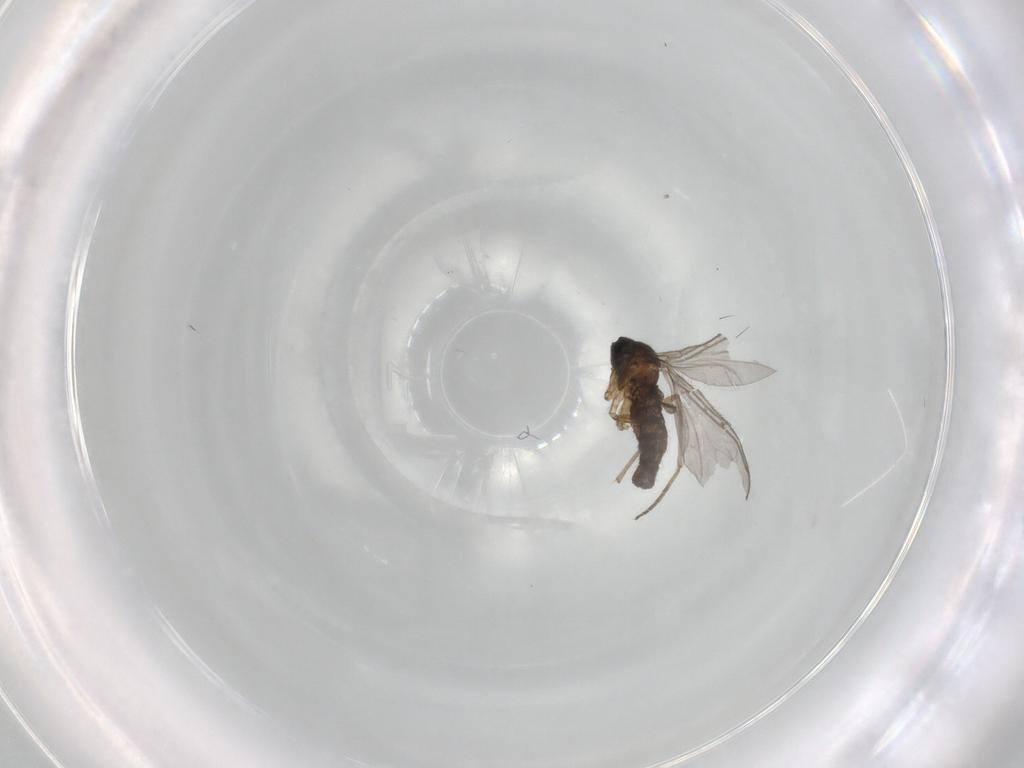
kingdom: Animalia
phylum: Arthropoda
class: Insecta
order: Diptera
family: Sciaridae
